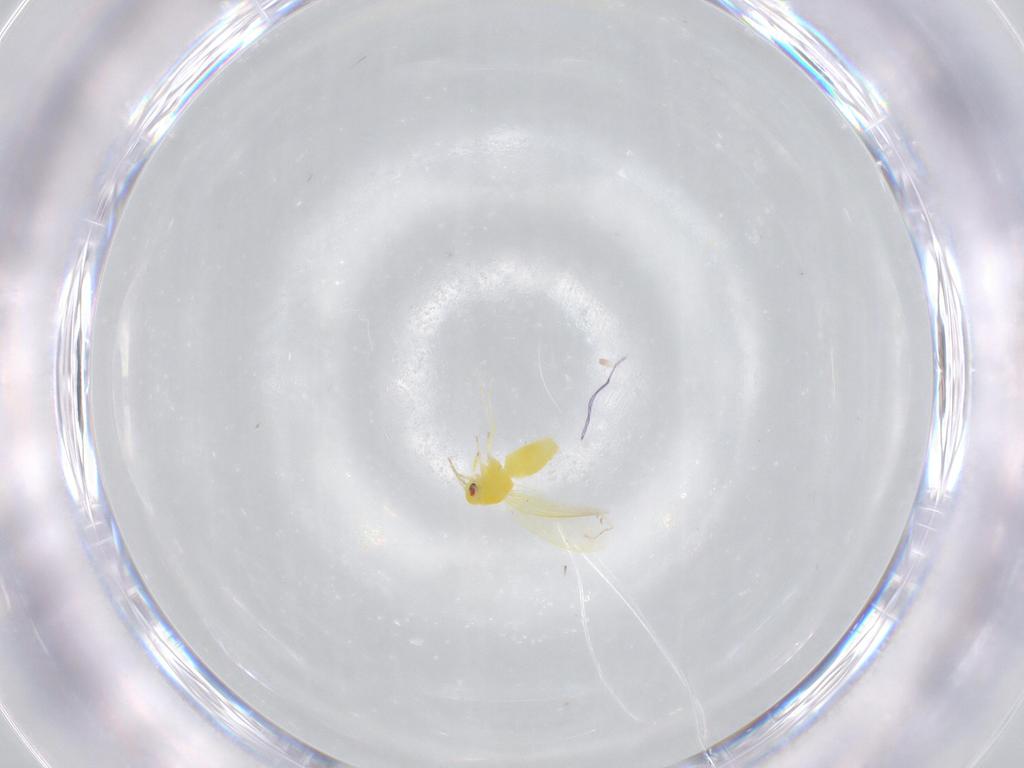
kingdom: Animalia
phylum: Arthropoda
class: Insecta
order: Hemiptera
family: Aleyrodidae
